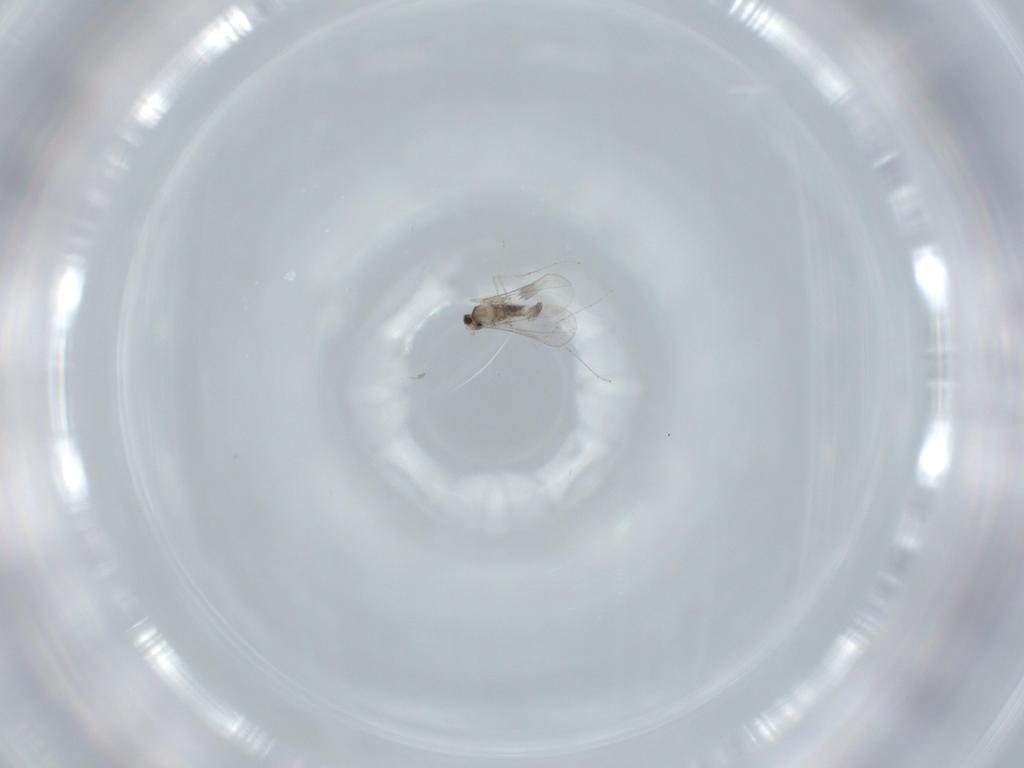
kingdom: Animalia
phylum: Arthropoda
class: Insecta
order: Diptera
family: Cecidomyiidae
